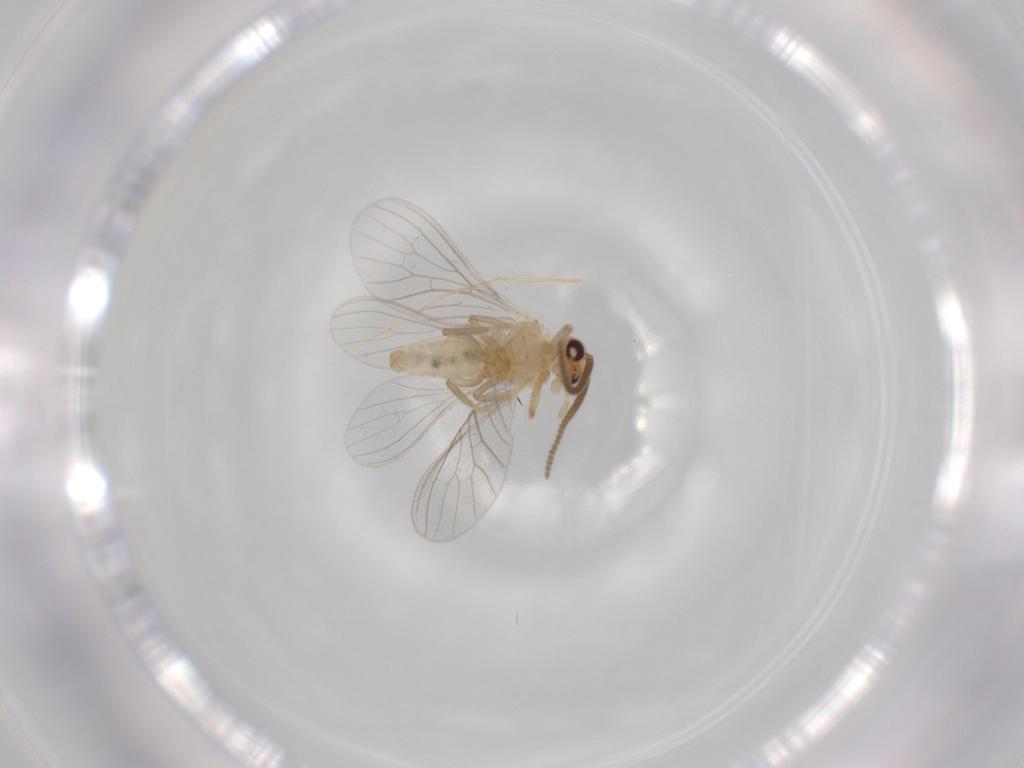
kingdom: Animalia
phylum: Arthropoda
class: Insecta
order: Neuroptera
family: Coniopterygidae
